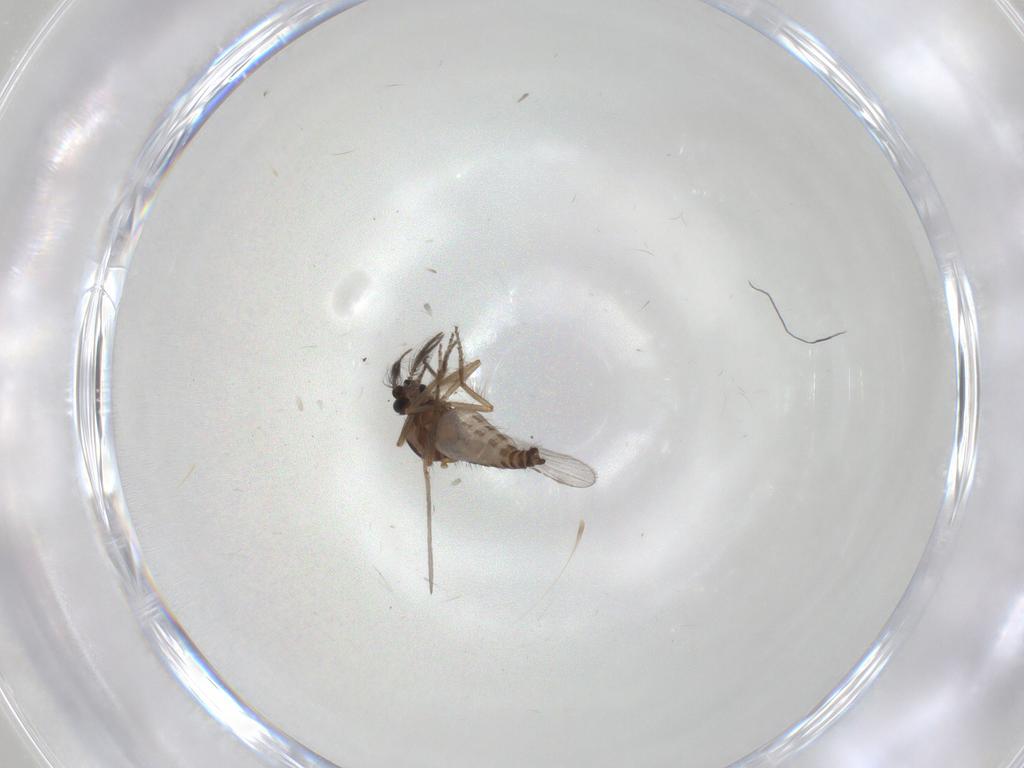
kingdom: Animalia
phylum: Arthropoda
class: Insecta
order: Diptera
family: Ceratopogonidae
